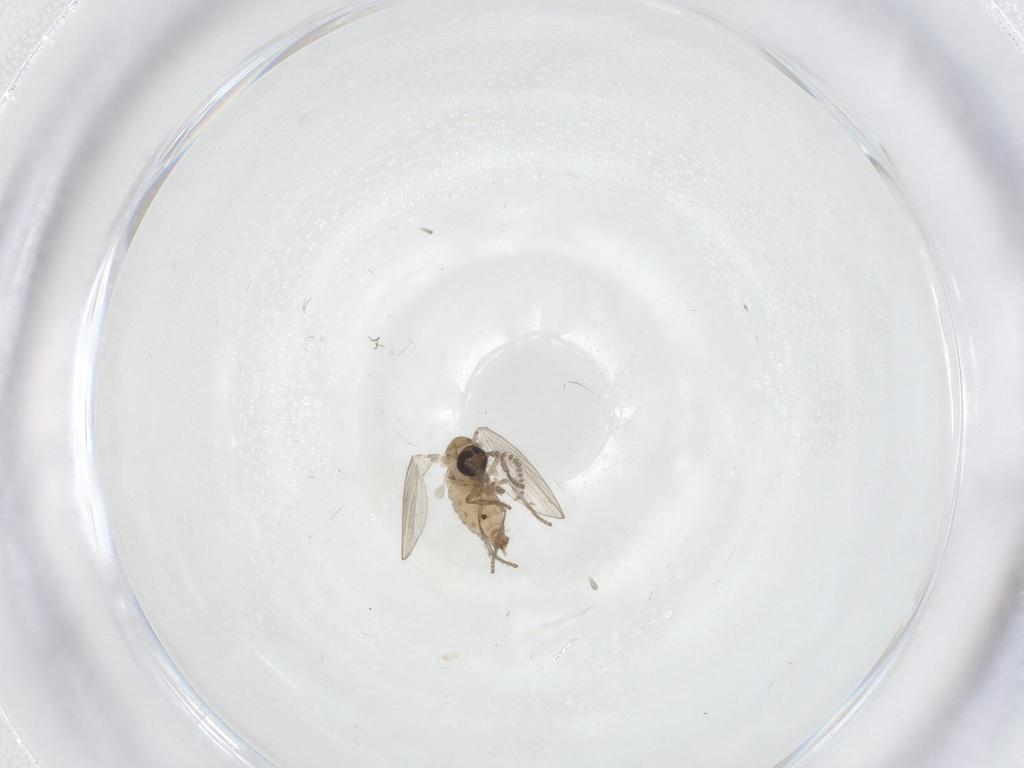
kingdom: Animalia
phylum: Arthropoda
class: Insecta
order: Diptera
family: Psychodidae
